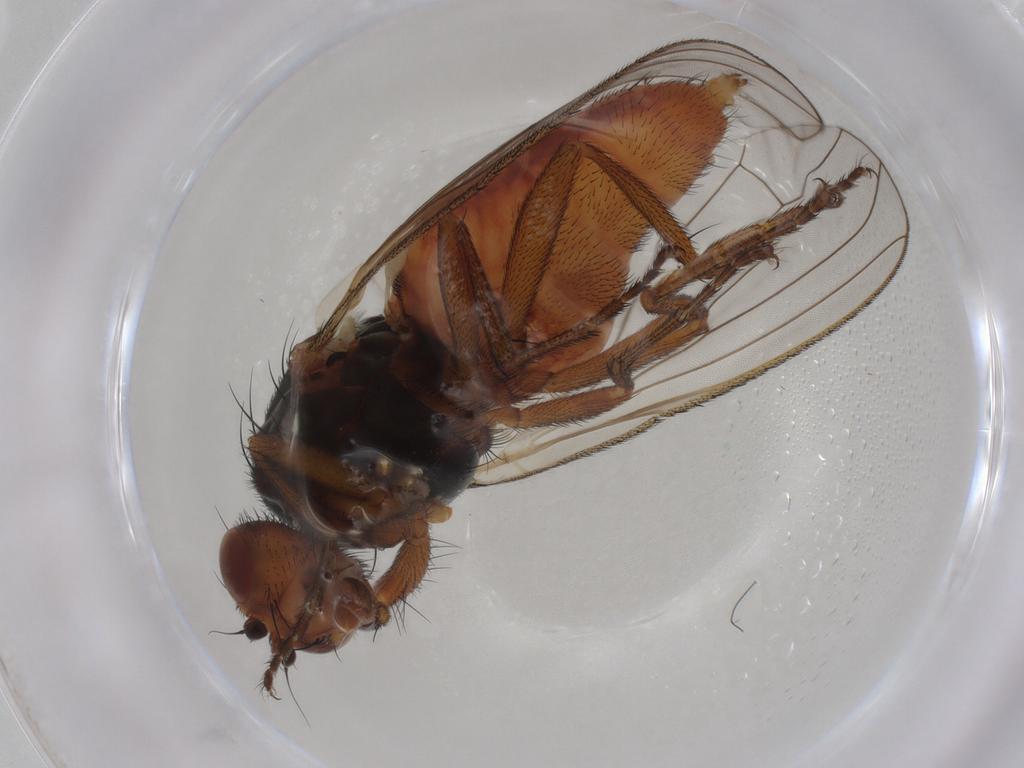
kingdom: Animalia
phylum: Arthropoda
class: Insecta
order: Diptera
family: Heleomyzidae
